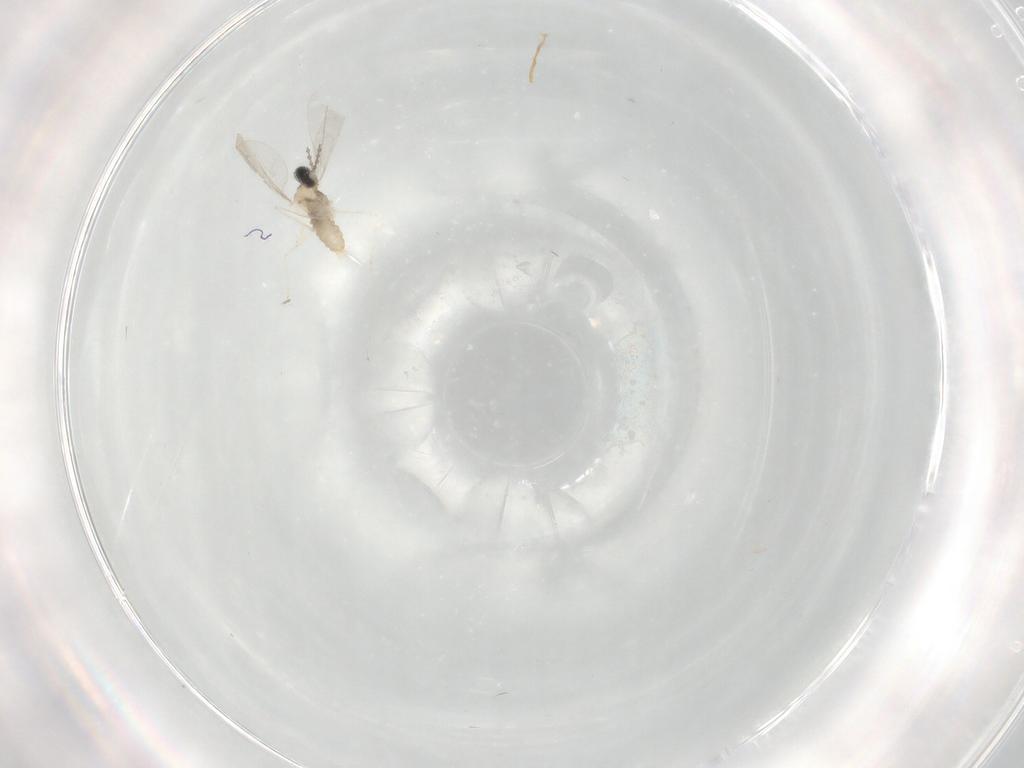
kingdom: Animalia
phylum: Arthropoda
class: Insecta
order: Diptera
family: Cecidomyiidae
